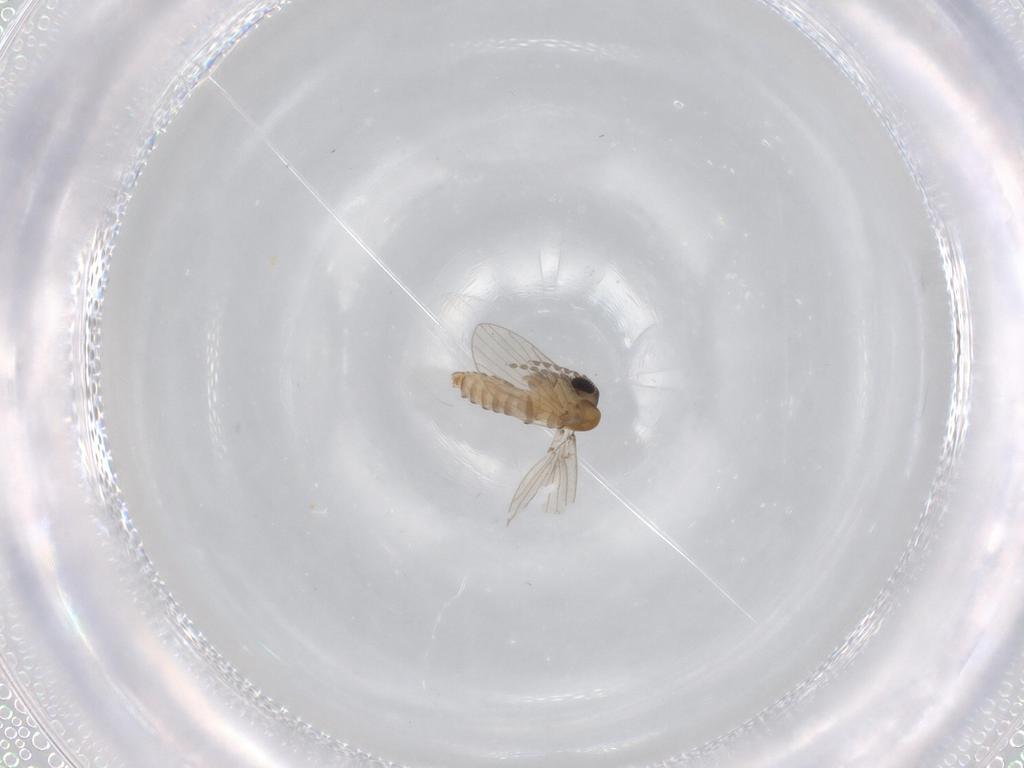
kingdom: Animalia
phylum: Arthropoda
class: Insecta
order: Diptera
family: Psychodidae
